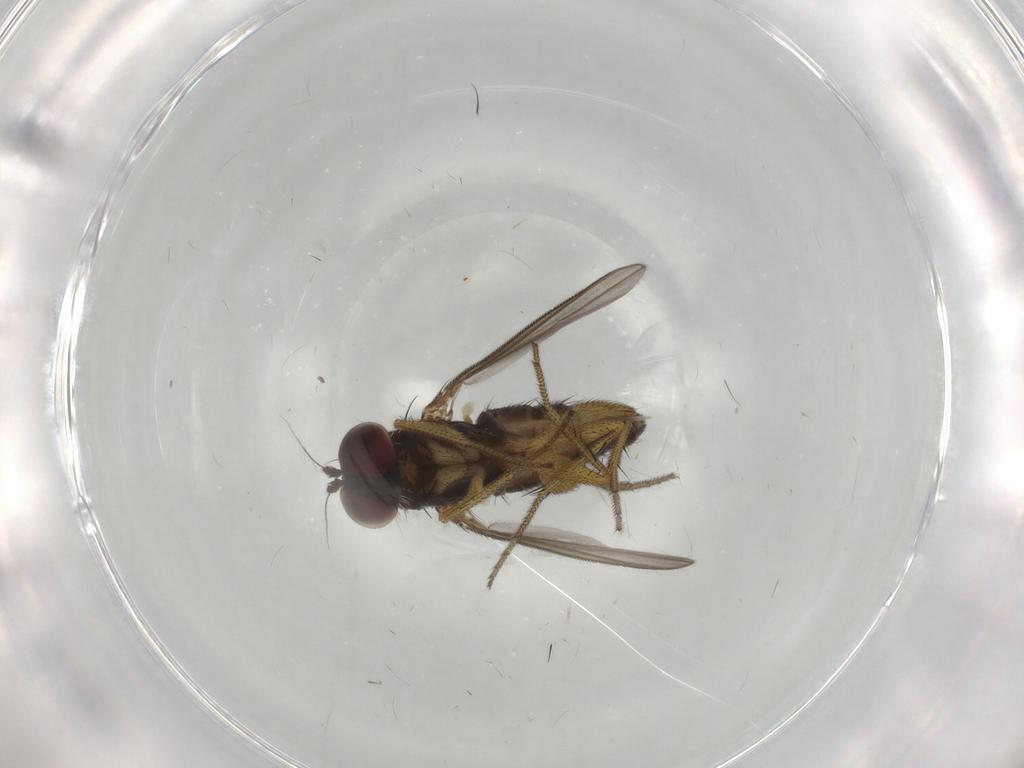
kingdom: Animalia
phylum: Arthropoda
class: Insecta
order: Diptera
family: Dolichopodidae
